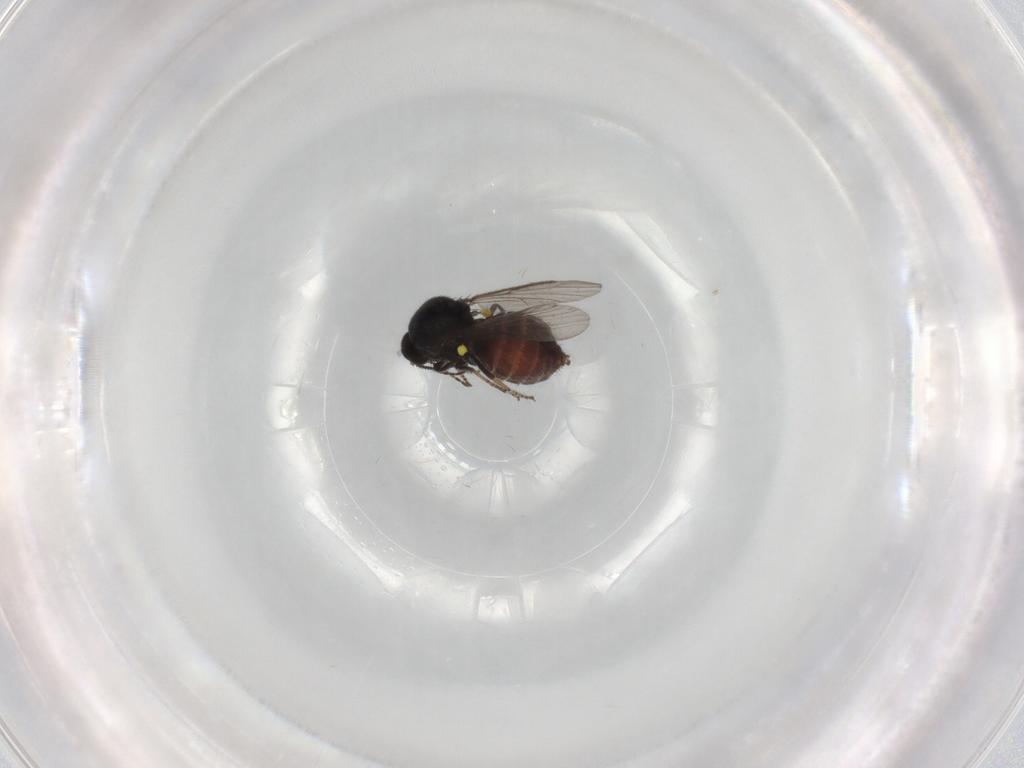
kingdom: Animalia
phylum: Arthropoda
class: Insecta
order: Diptera
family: Ceratopogonidae
